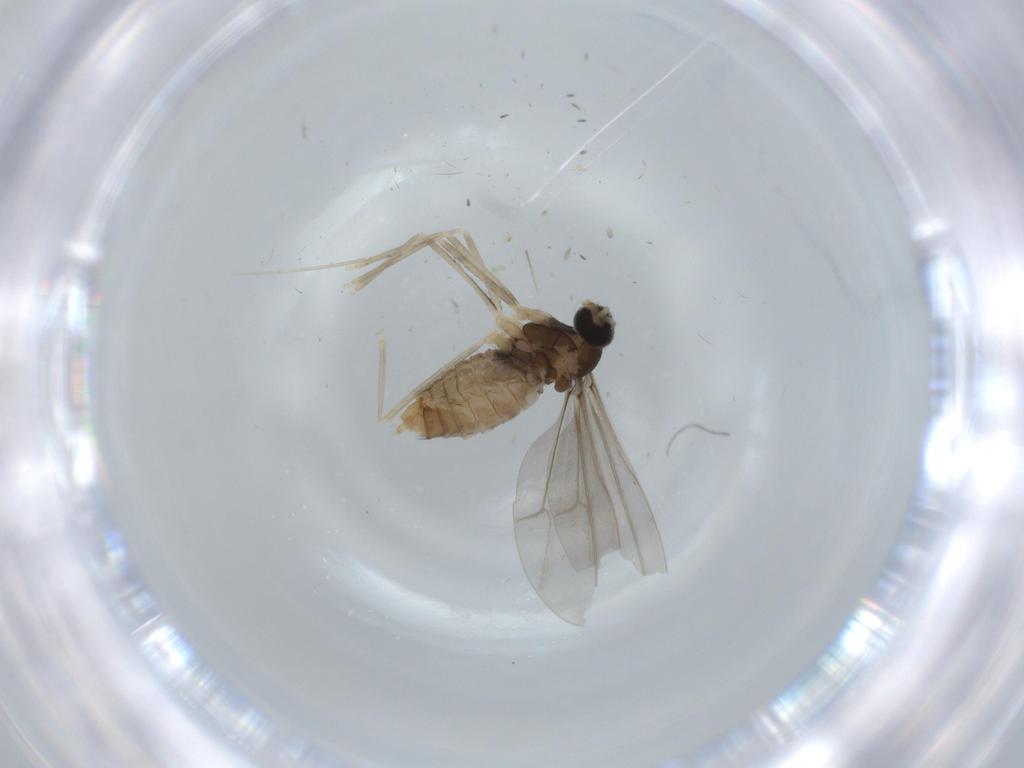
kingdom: Animalia
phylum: Arthropoda
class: Insecta
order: Diptera
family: Cecidomyiidae
